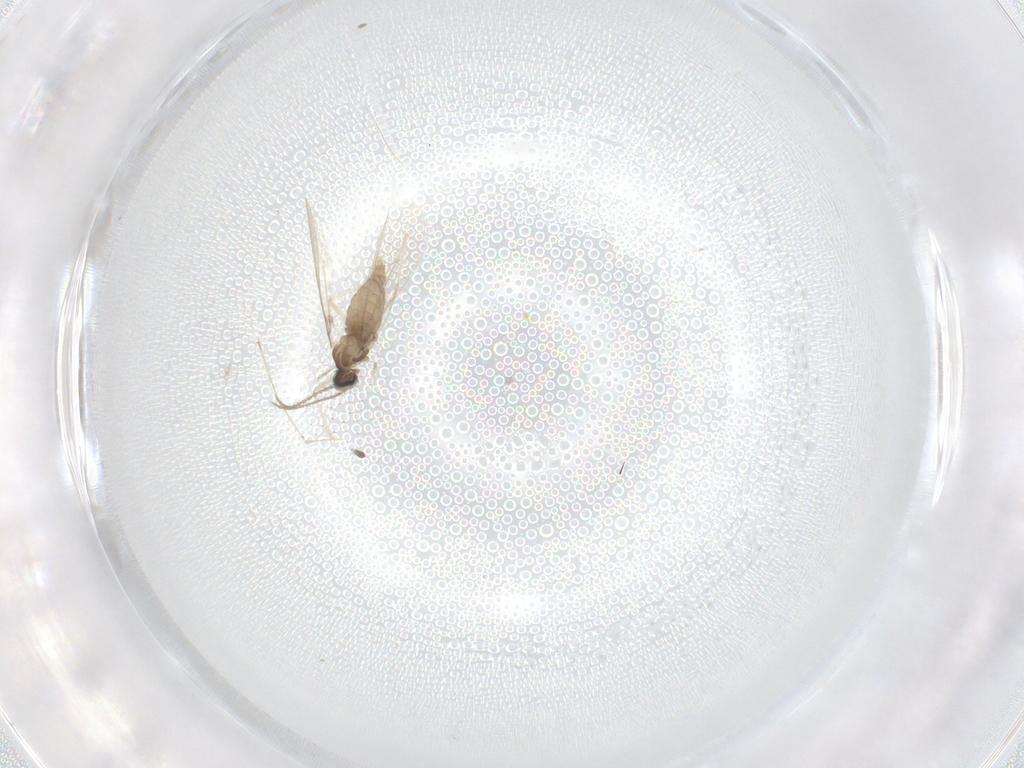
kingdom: Animalia
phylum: Arthropoda
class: Insecta
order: Diptera
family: Cecidomyiidae
